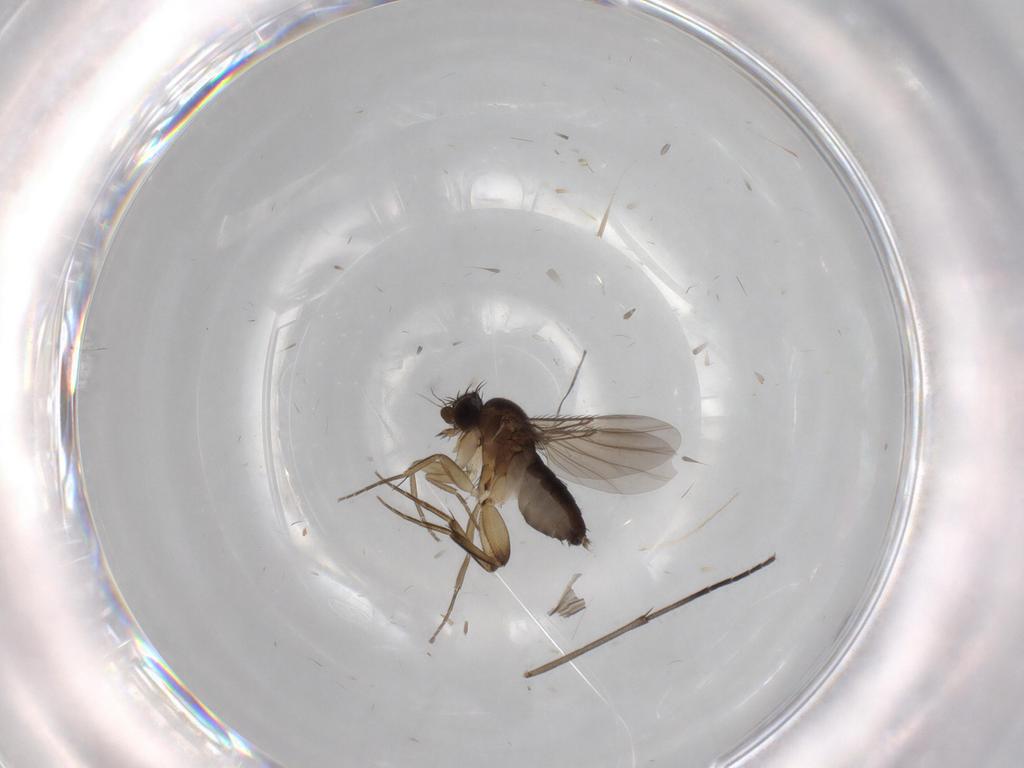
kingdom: Animalia
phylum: Arthropoda
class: Insecta
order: Diptera
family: Phoridae
